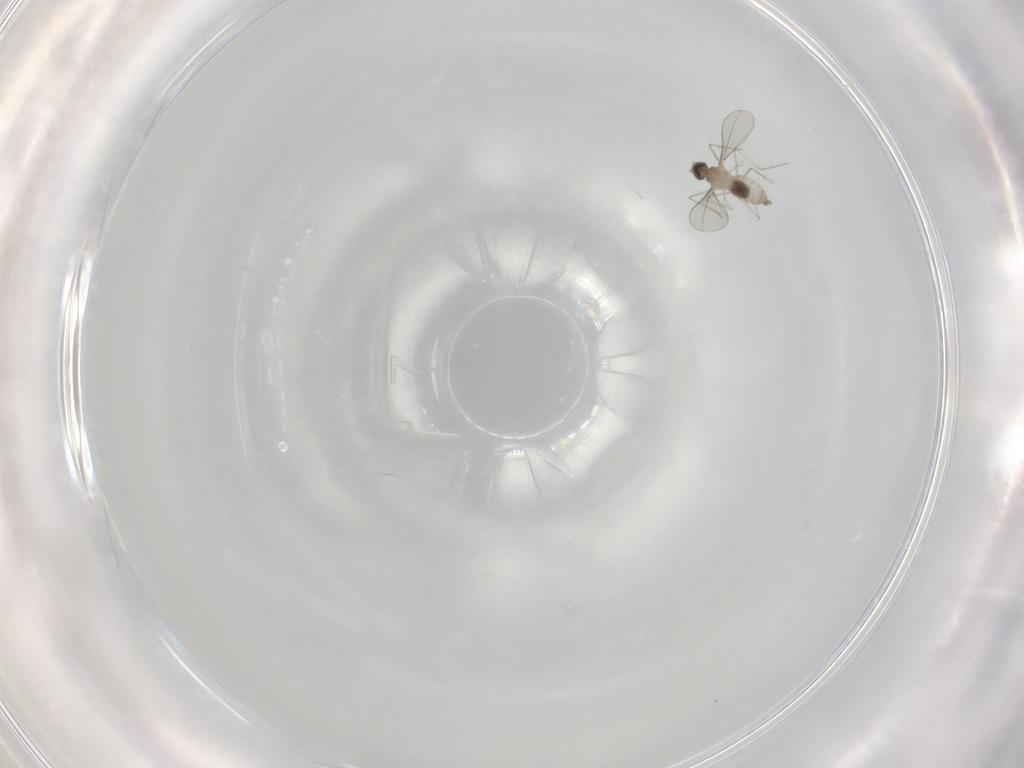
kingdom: Animalia
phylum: Arthropoda
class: Insecta
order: Diptera
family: Cecidomyiidae
